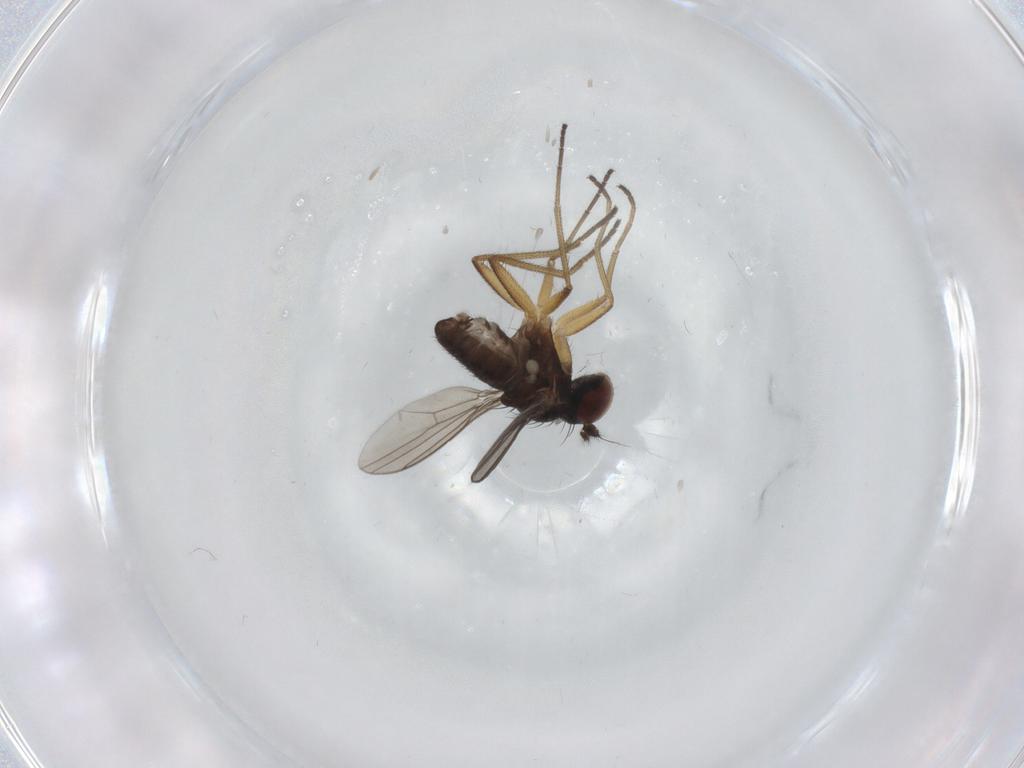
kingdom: Animalia
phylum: Arthropoda
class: Insecta
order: Diptera
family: Dolichopodidae
